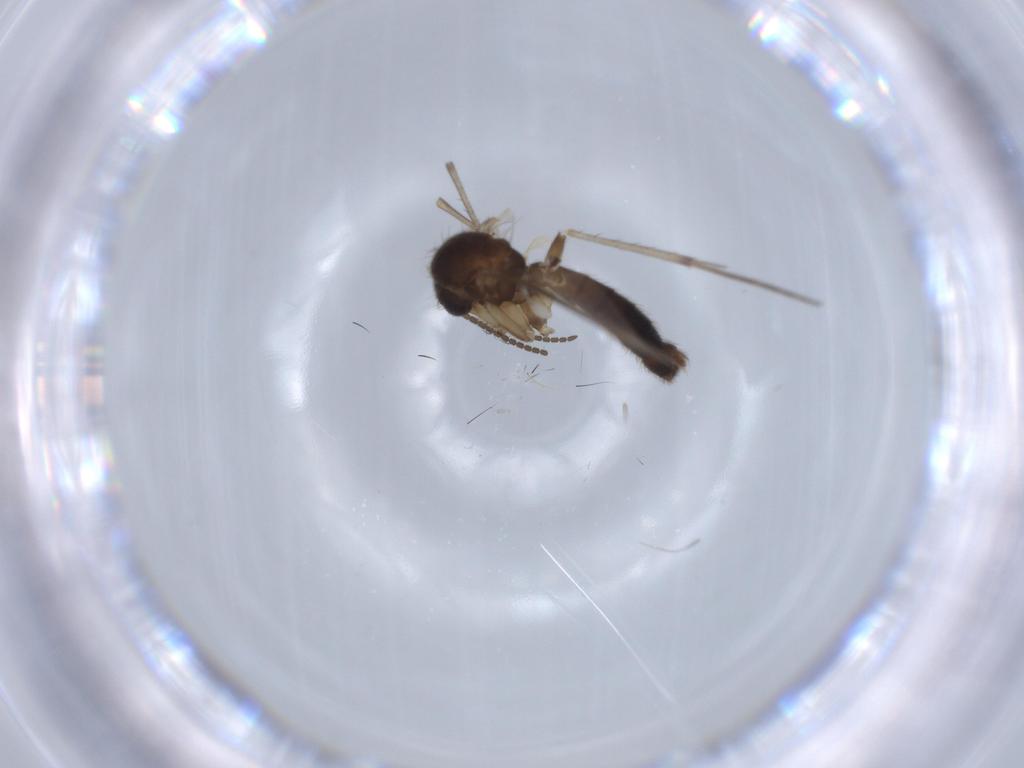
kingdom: Animalia
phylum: Arthropoda
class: Insecta
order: Diptera
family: Mycetophilidae
